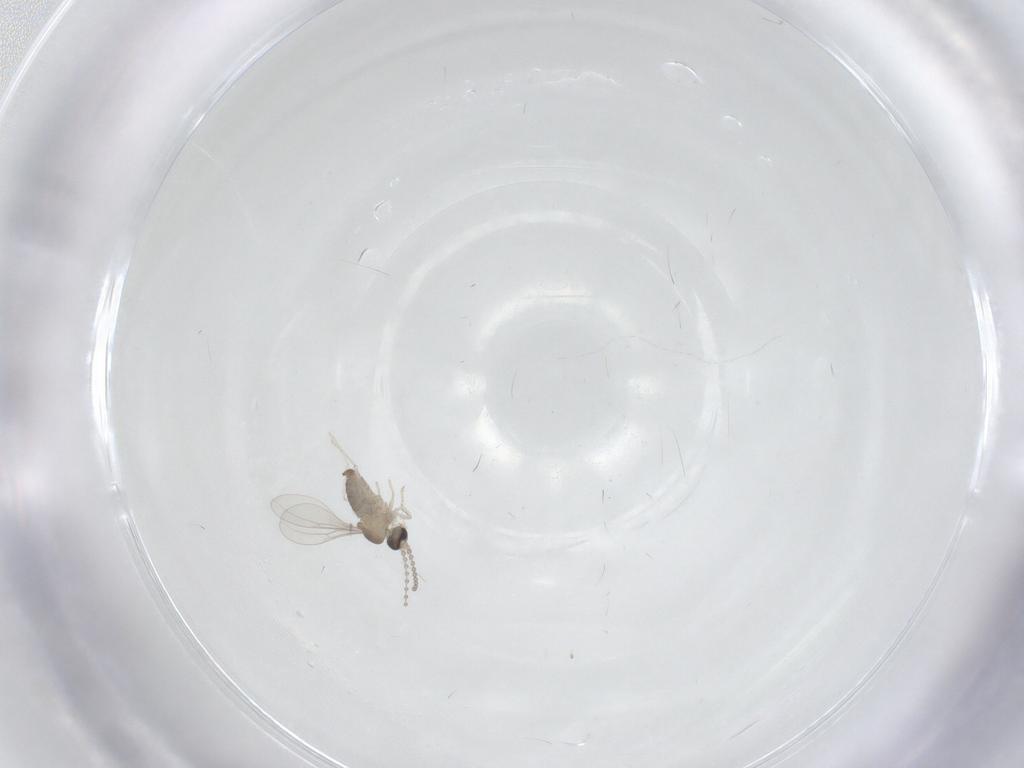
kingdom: Animalia
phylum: Arthropoda
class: Insecta
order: Diptera
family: Cecidomyiidae
